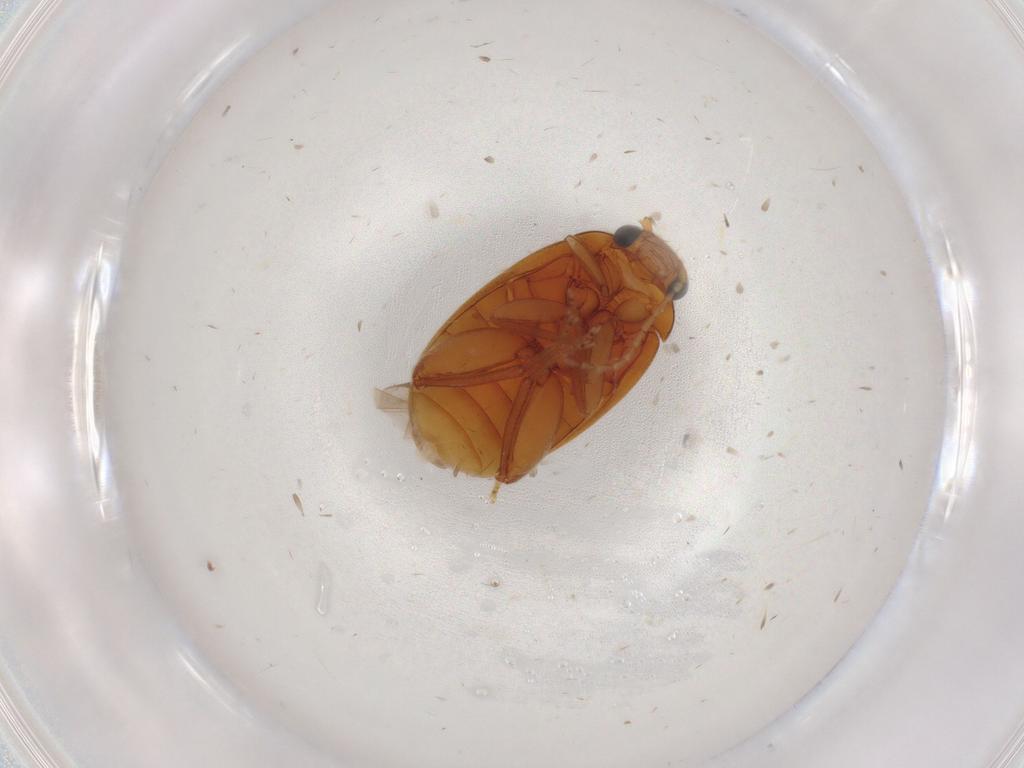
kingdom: Animalia
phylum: Arthropoda
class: Insecta
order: Coleoptera
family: Scirtidae
